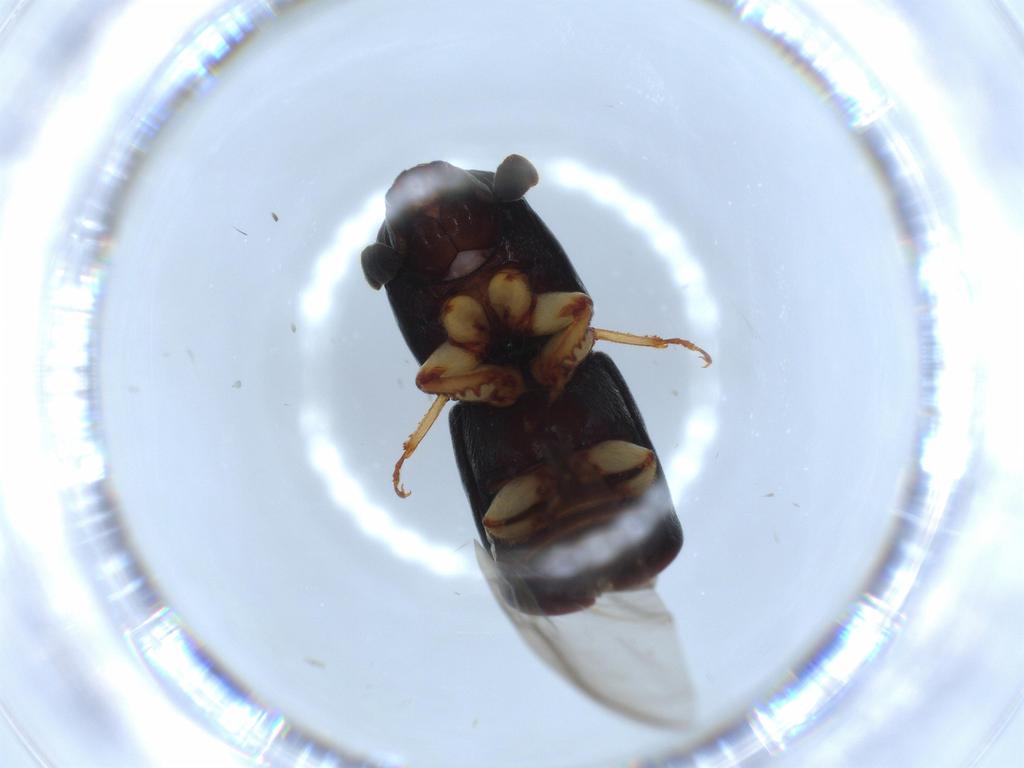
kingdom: Animalia
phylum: Arthropoda
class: Insecta
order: Coleoptera
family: Curculionidae
